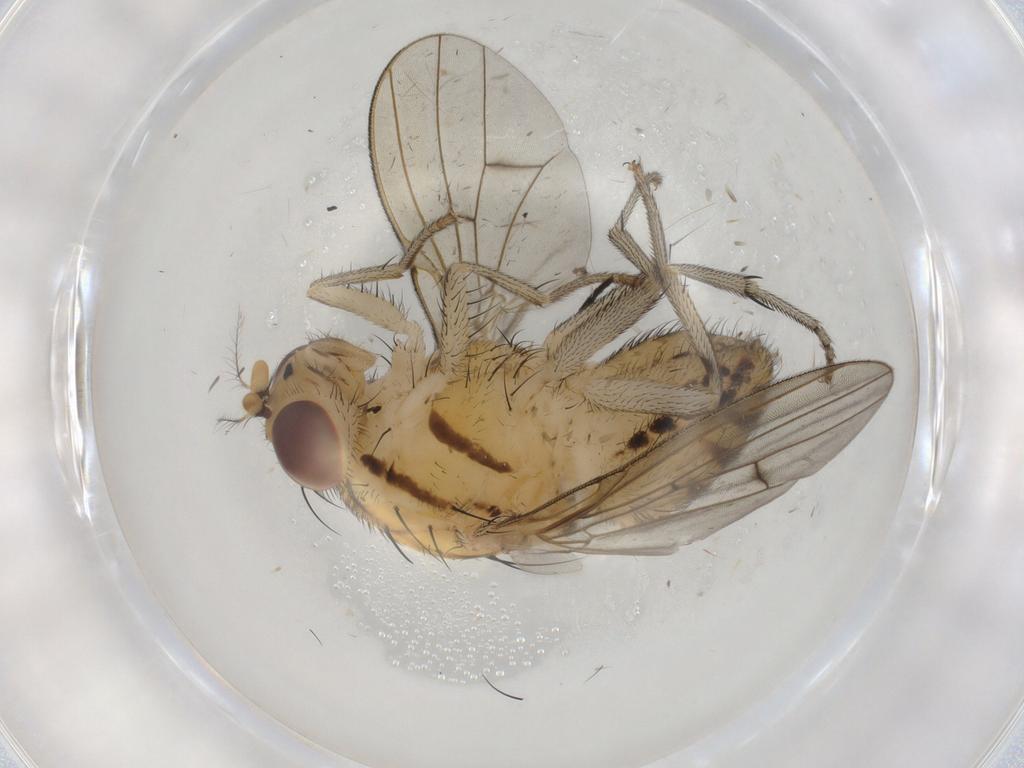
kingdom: Animalia
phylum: Arthropoda
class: Insecta
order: Diptera
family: Lauxaniidae
